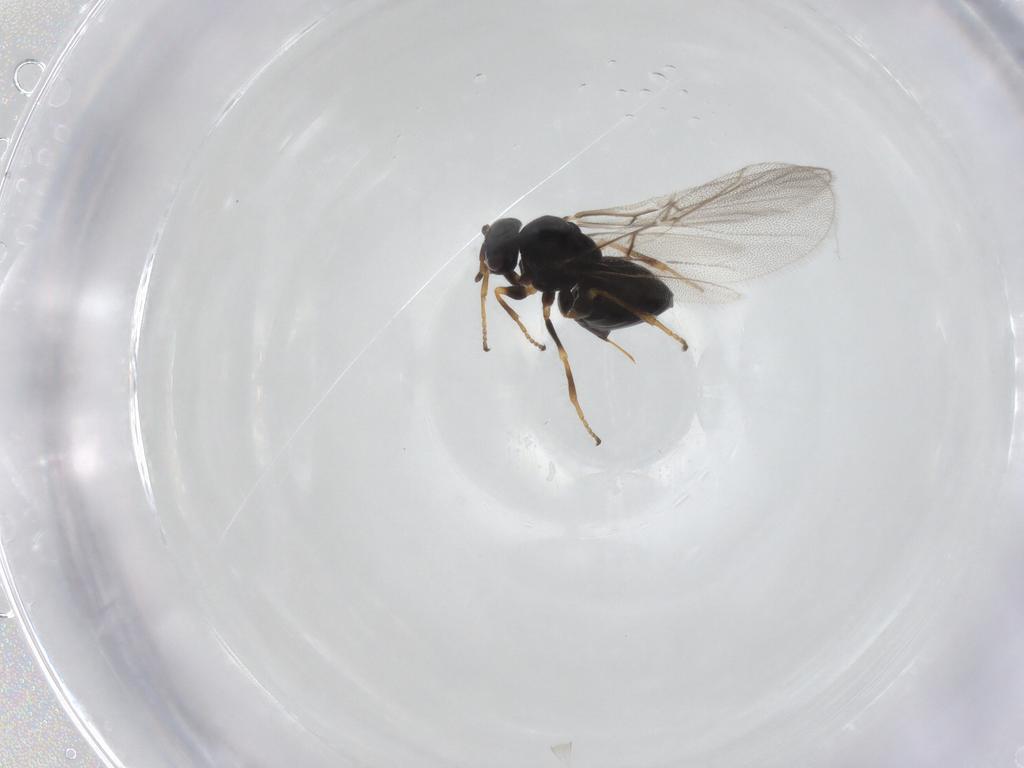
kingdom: Animalia
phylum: Arthropoda
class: Insecta
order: Hymenoptera
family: Cynipidae
